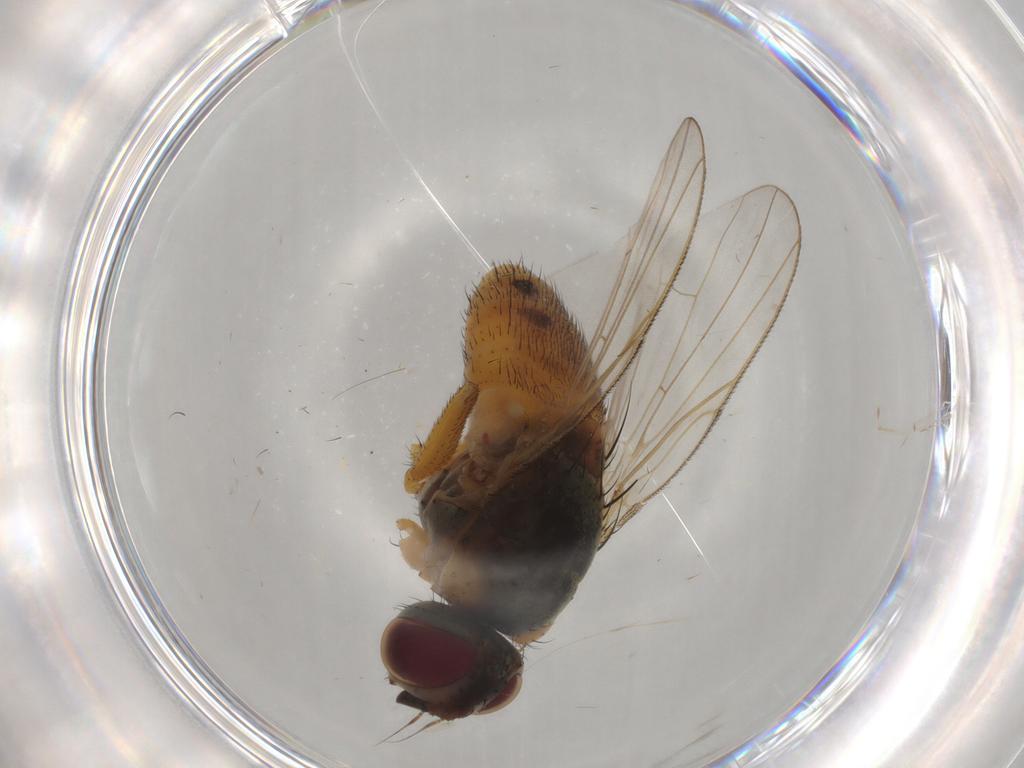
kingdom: Animalia
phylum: Arthropoda
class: Insecta
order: Diptera
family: Muscidae
